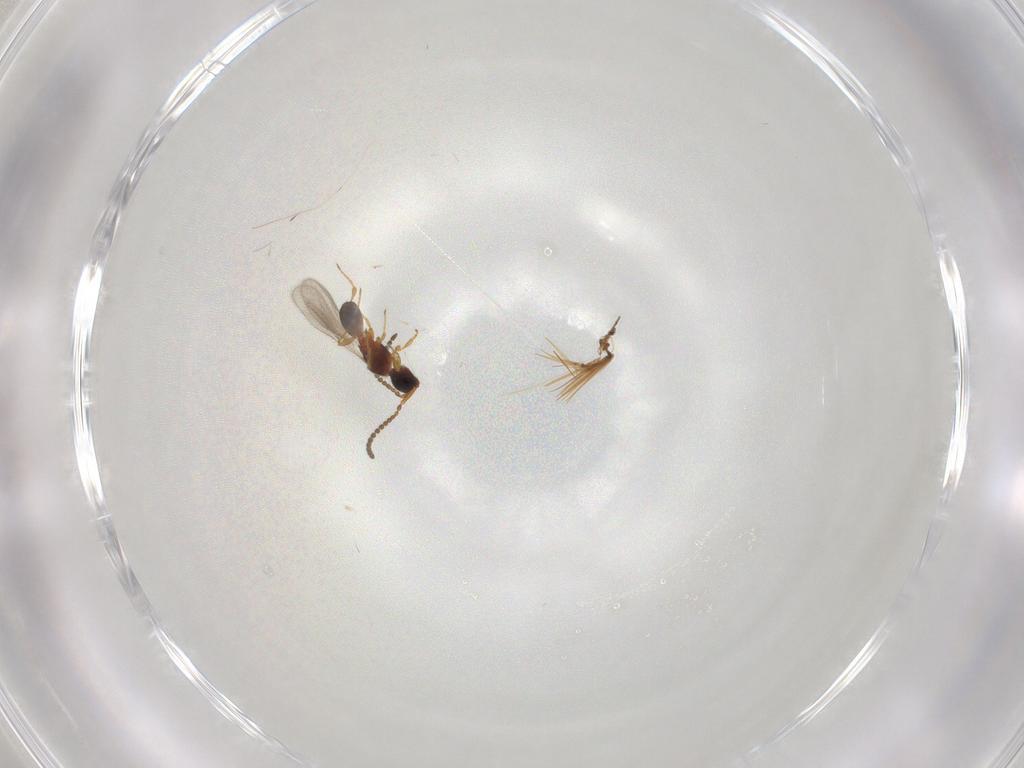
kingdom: Animalia
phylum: Arthropoda
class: Insecta
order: Hymenoptera
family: Diapriidae
